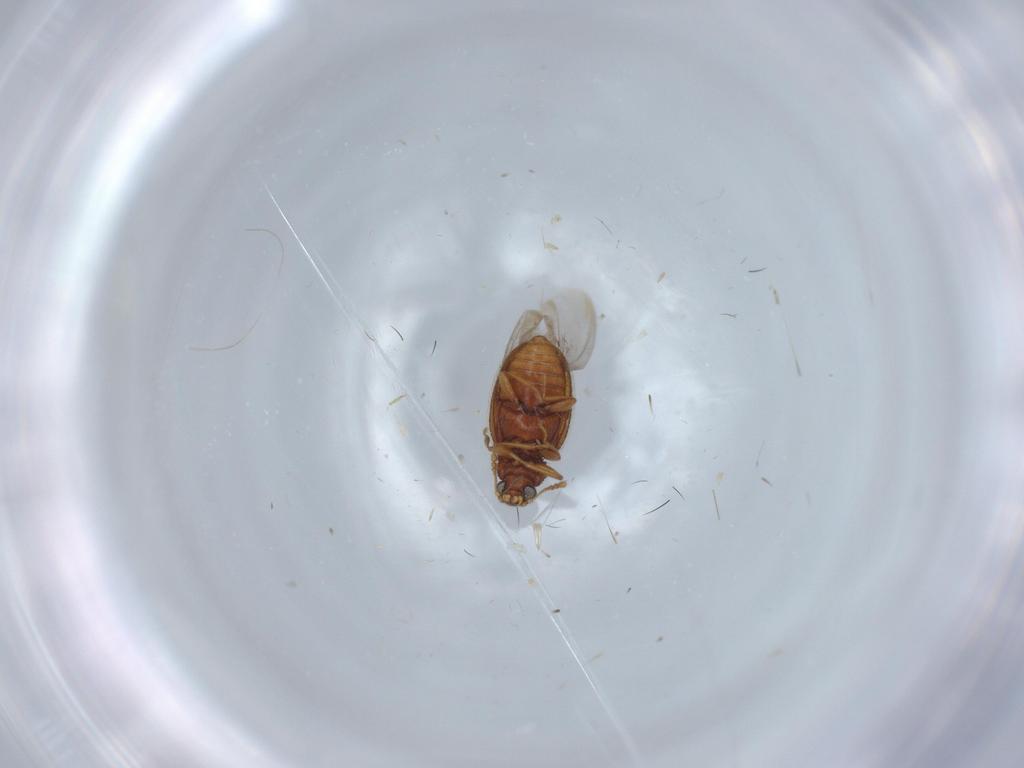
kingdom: Animalia
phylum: Arthropoda
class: Insecta
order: Coleoptera
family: Latridiidae
